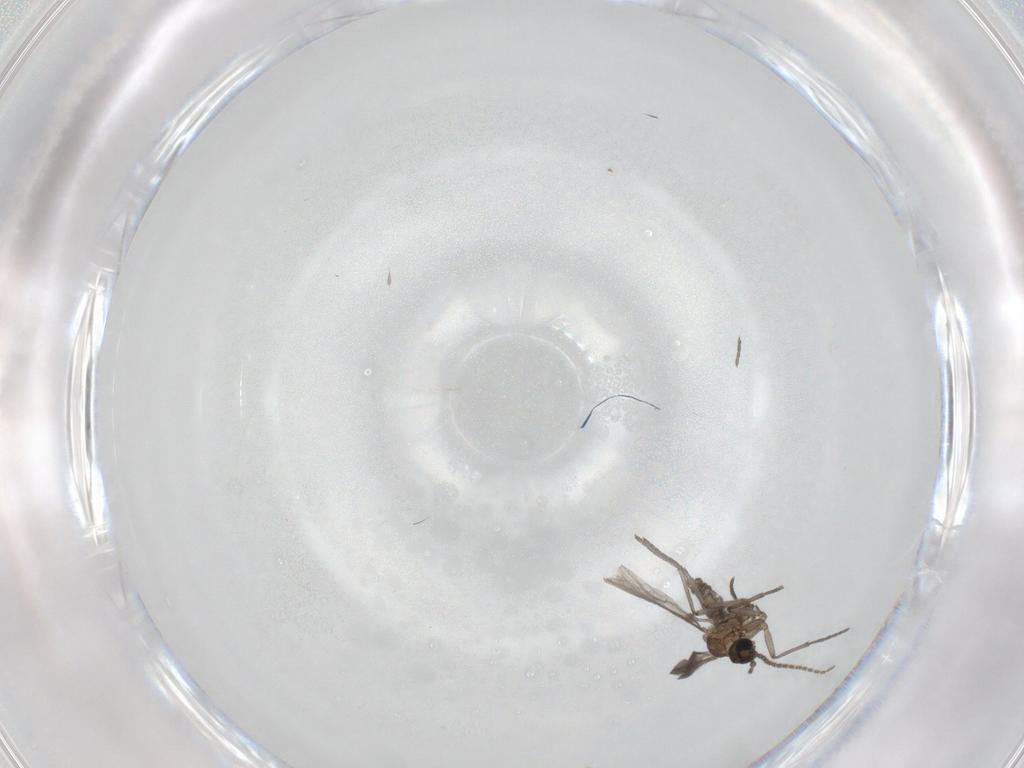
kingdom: Animalia
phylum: Arthropoda
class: Insecta
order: Diptera
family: Sciaridae
